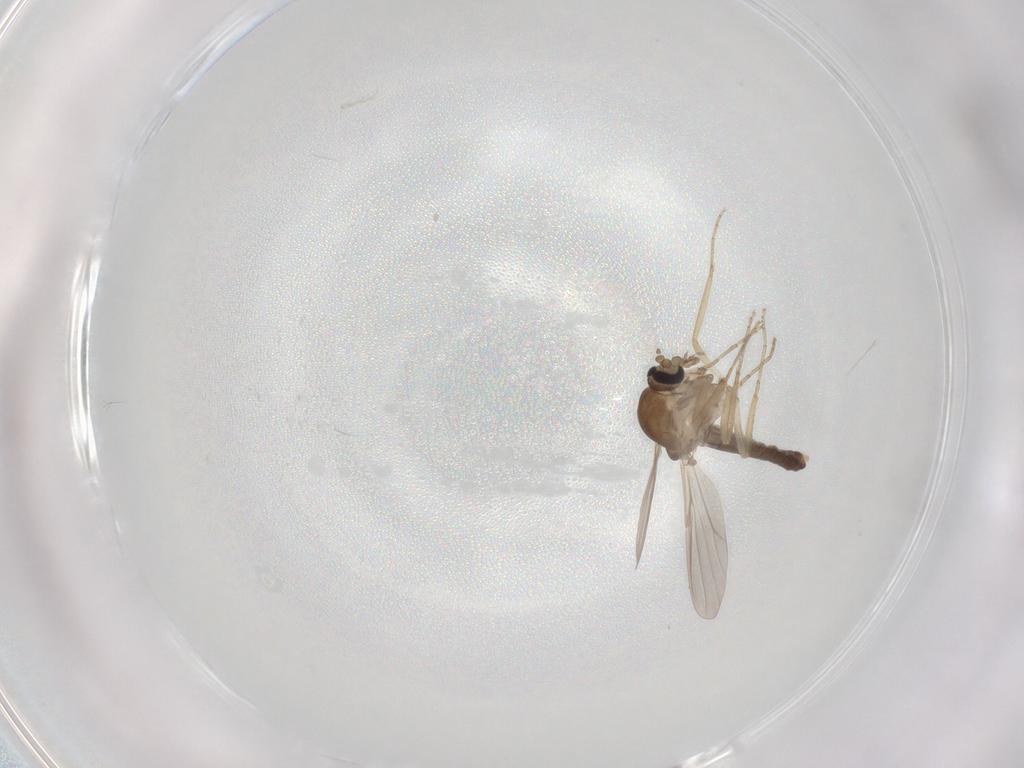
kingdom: Animalia
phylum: Arthropoda
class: Insecta
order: Diptera
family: Ceratopogonidae
